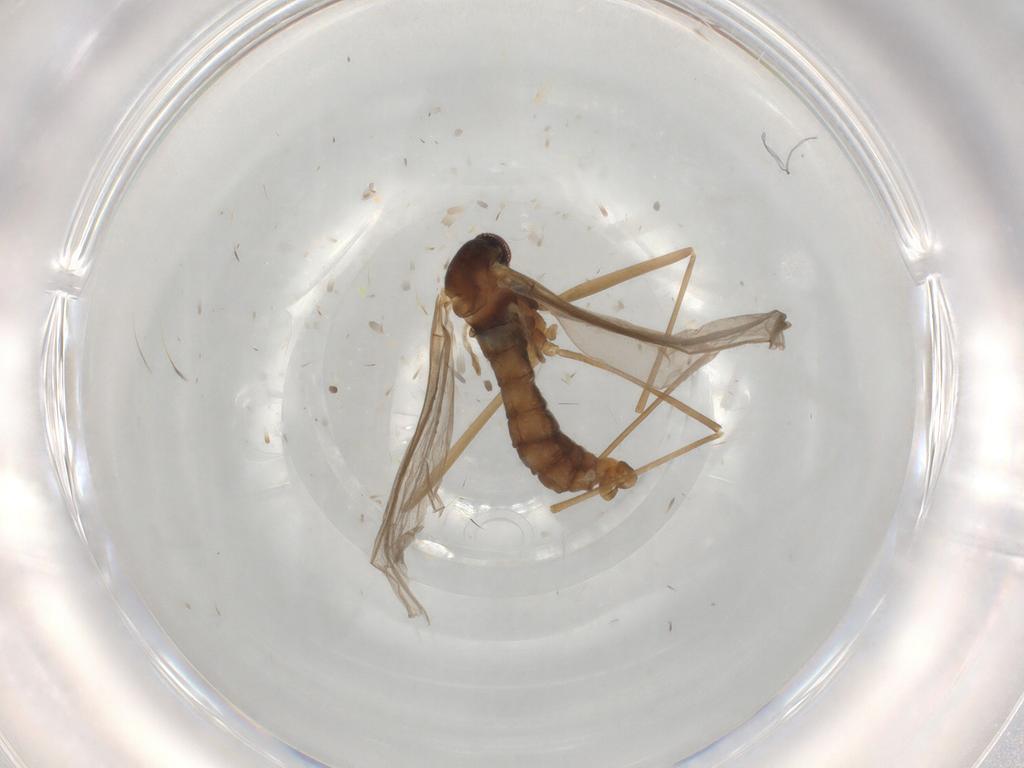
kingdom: Animalia
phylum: Arthropoda
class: Insecta
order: Diptera
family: Cecidomyiidae
